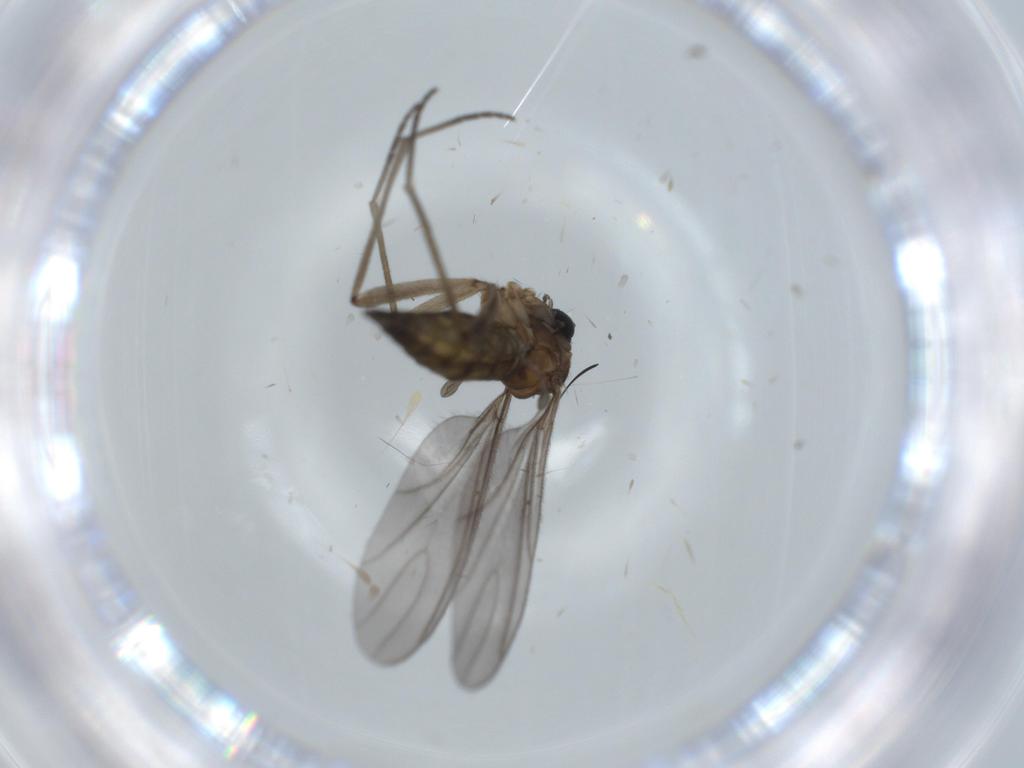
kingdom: Animalia
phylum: Arthropoda
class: Insecta
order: Diptera
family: Sciaridae
